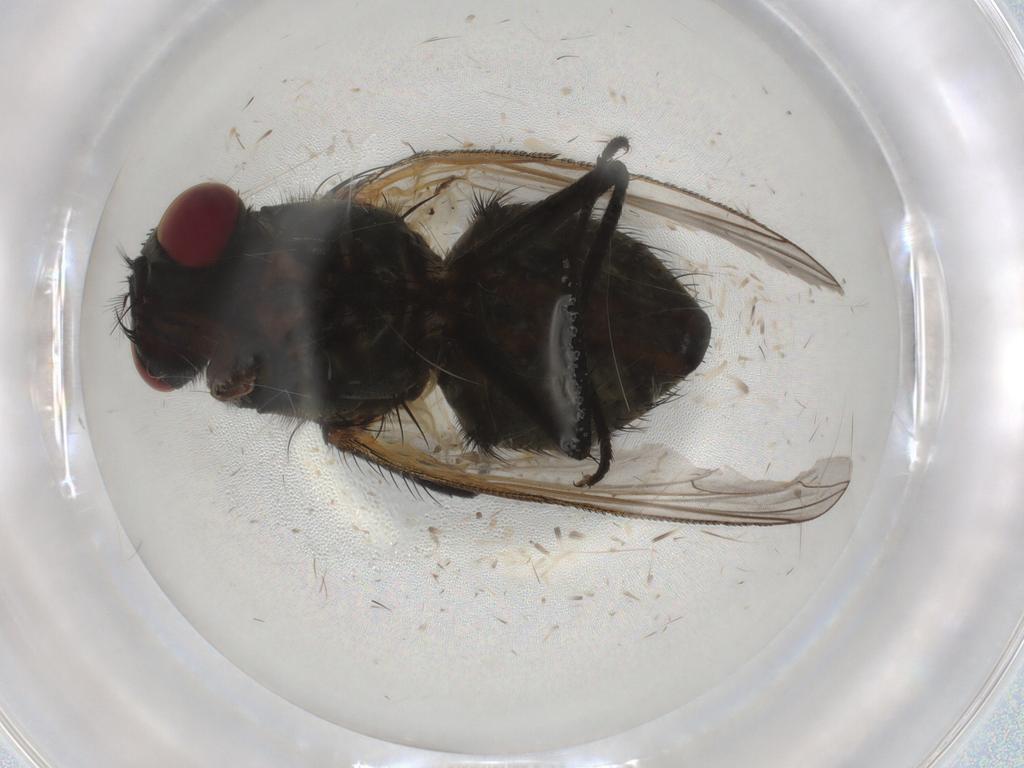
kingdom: Animalia
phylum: Arthropoda
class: Insecta
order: Diptera
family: Muscidae
